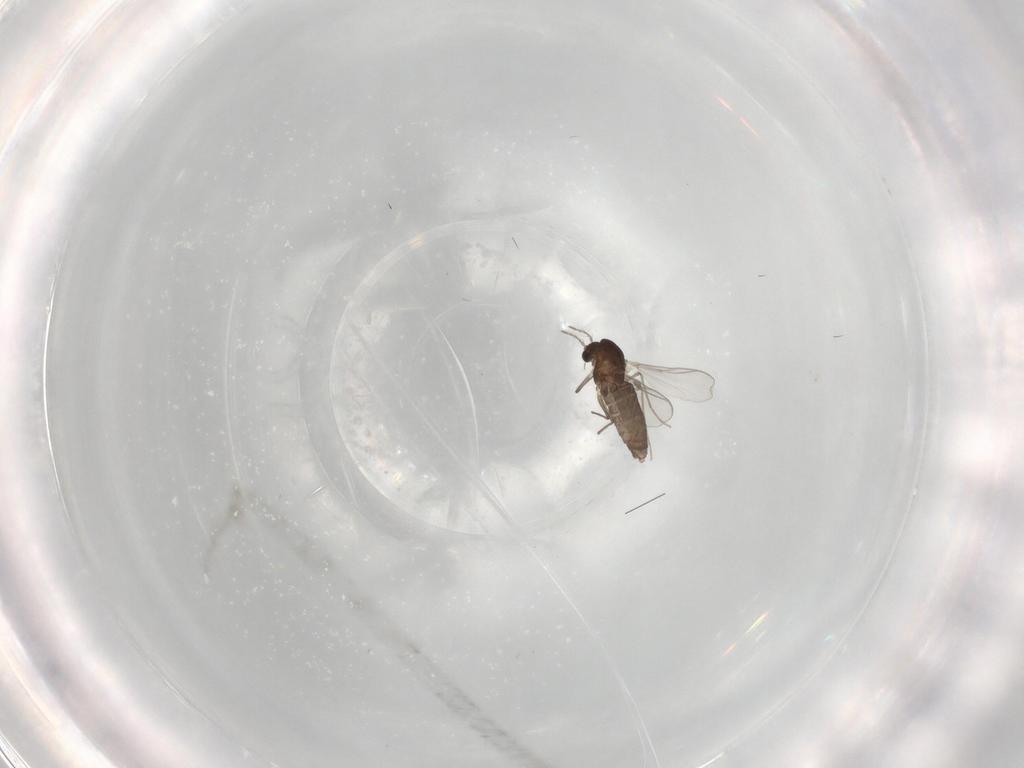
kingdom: Animalia
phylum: Arthropoda
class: Insecta
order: Diptera
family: Chironomidae
